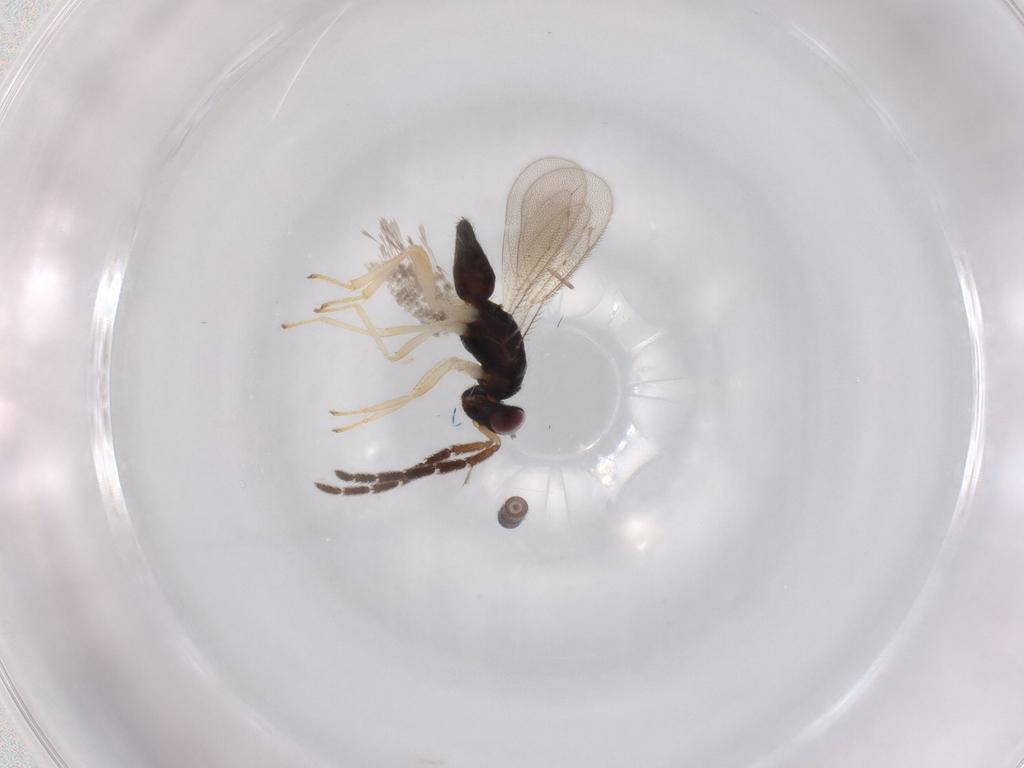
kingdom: Animalia
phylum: Arthropoda
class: Insecta
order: Hymenoptera
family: Eulophidae
